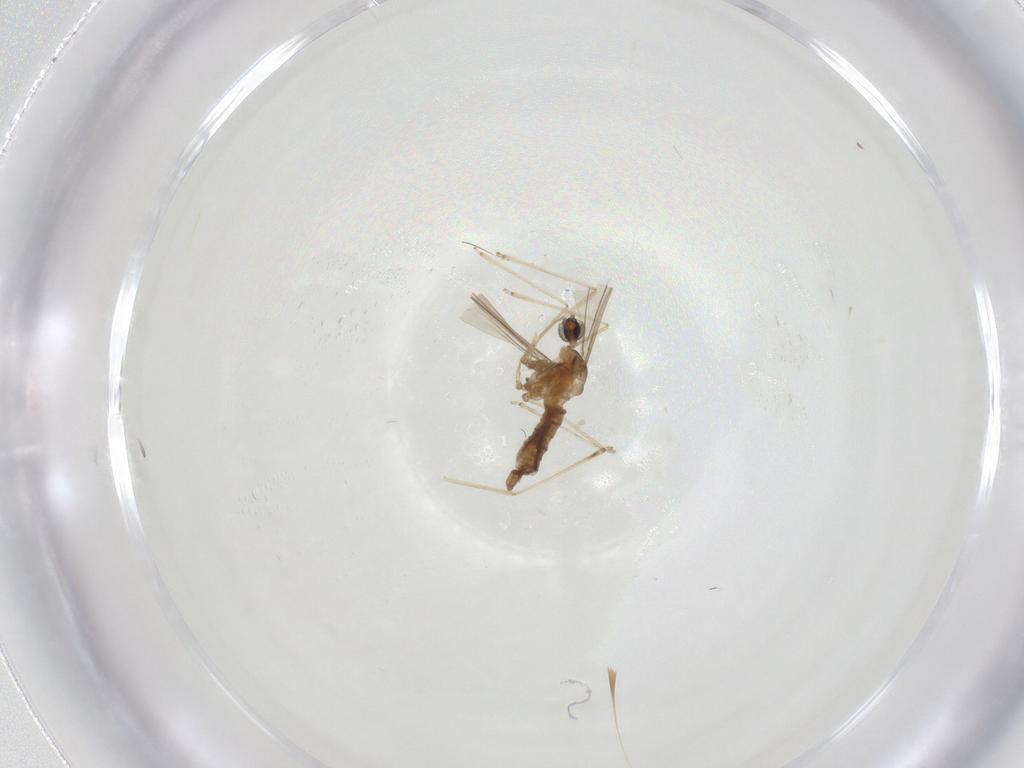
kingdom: Animalia
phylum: Arthropoda
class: Insecta
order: Diptera
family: Cecidomyiidae
